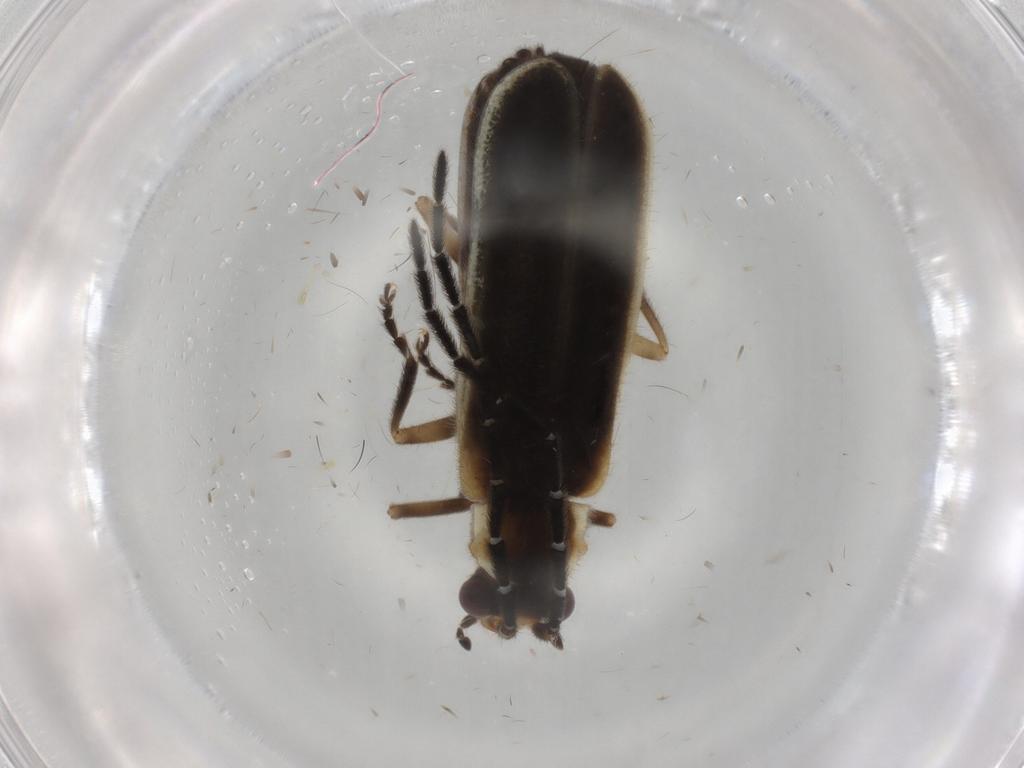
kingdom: Animalia
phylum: Arthropoda
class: Insecta
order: Coleoptera
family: Cantharidae
